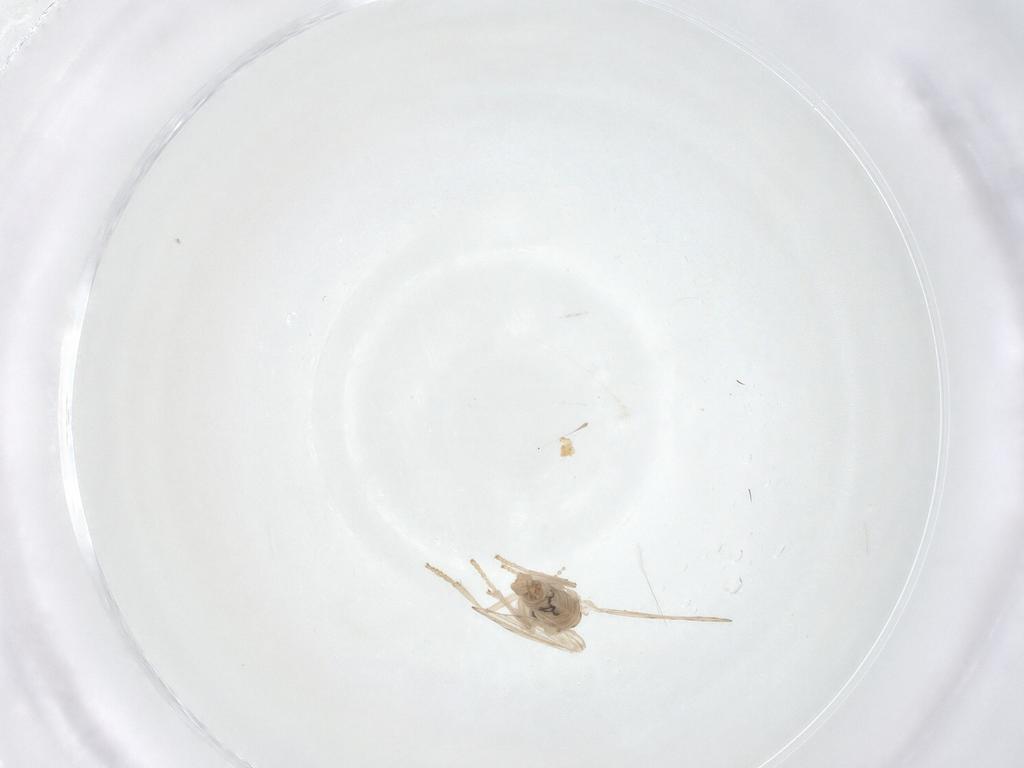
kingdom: Animalia
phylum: Arthropoda
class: Insecta
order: Diptera
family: Psychodidae
